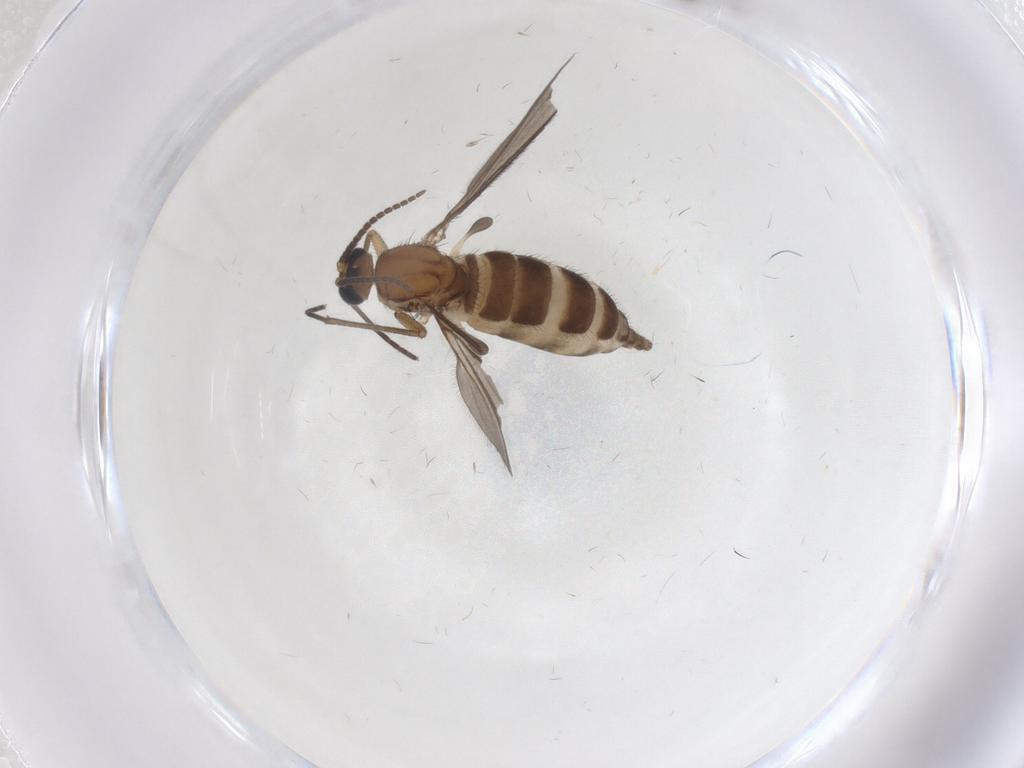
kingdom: Animalia
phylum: Arthropoda
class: Insecta
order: Diptera
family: Sciaridae
